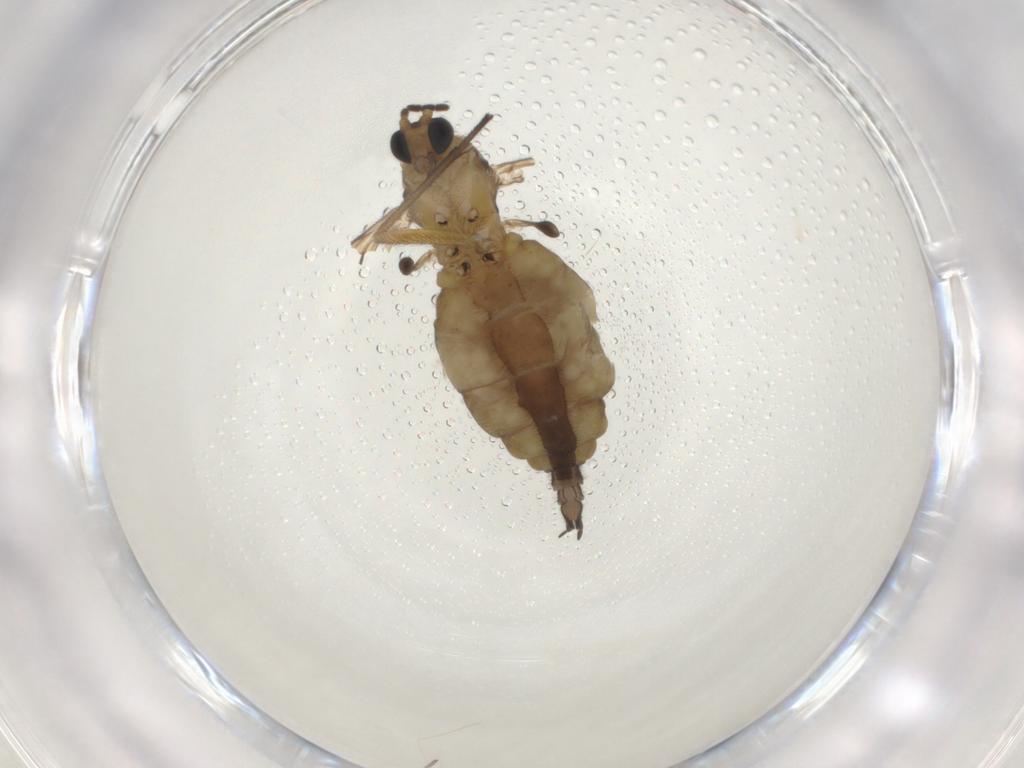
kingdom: Animalia
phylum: Arthropoda
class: Insecta
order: Diptera
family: Sciaridae
